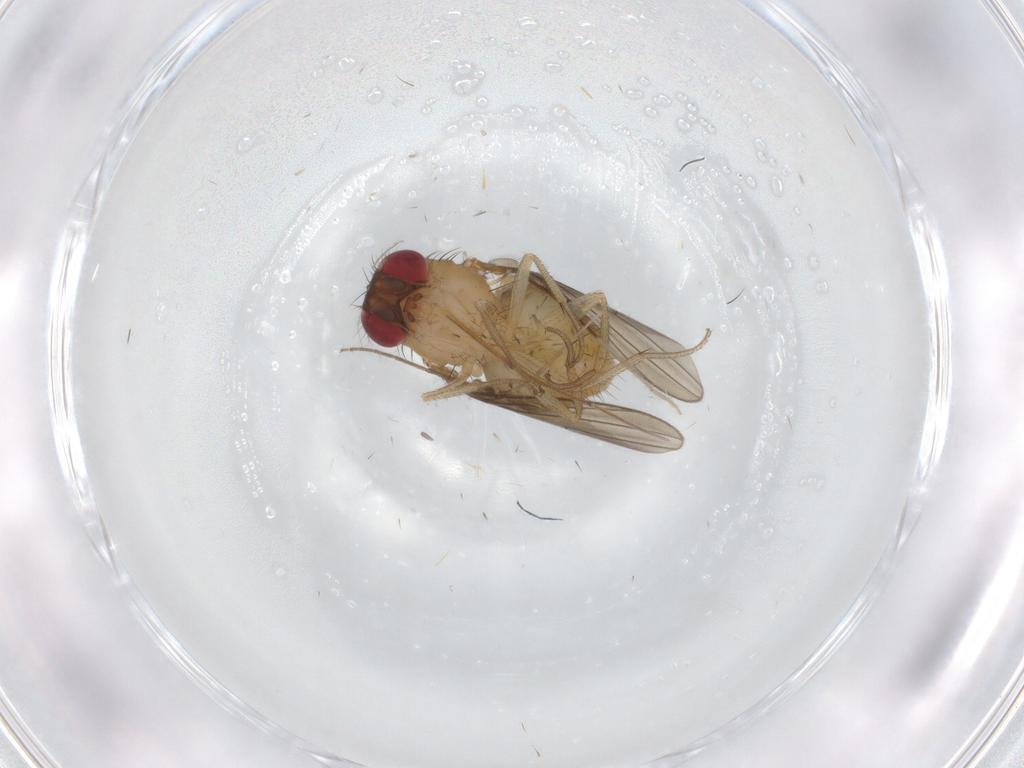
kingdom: Animalia
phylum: Arthropoda
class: Insecta
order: Diptera
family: Drosophilidae
